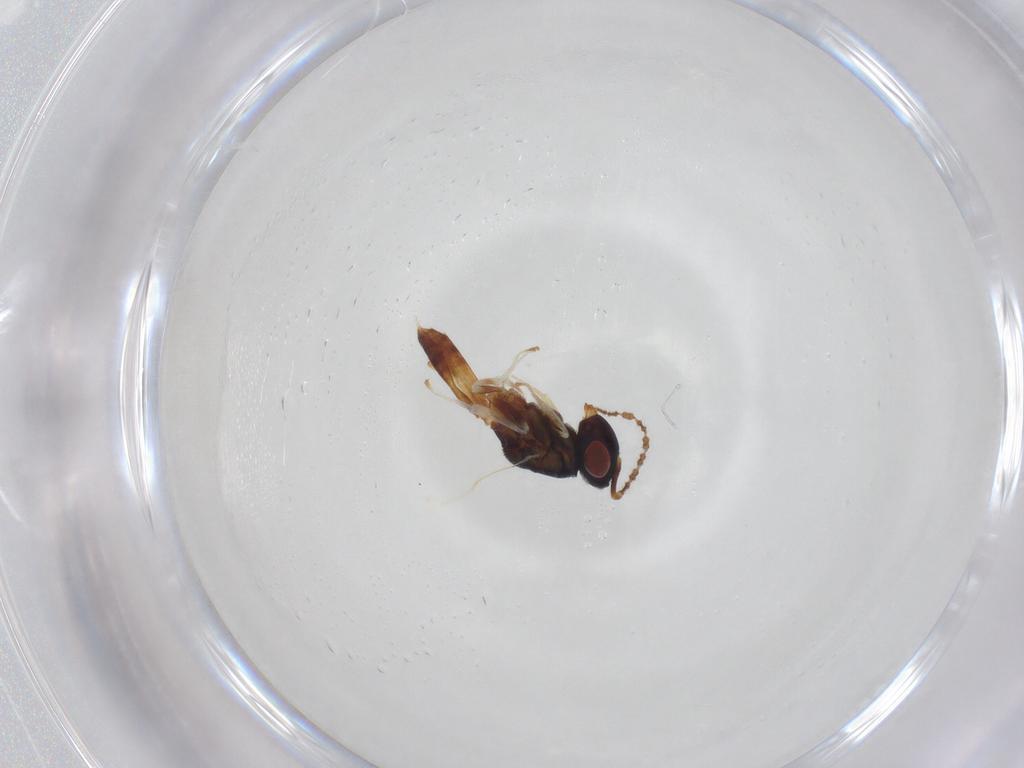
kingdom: Animalia
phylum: Arthropoda
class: Insecta
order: Hymenoptera
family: Pteromalidae
